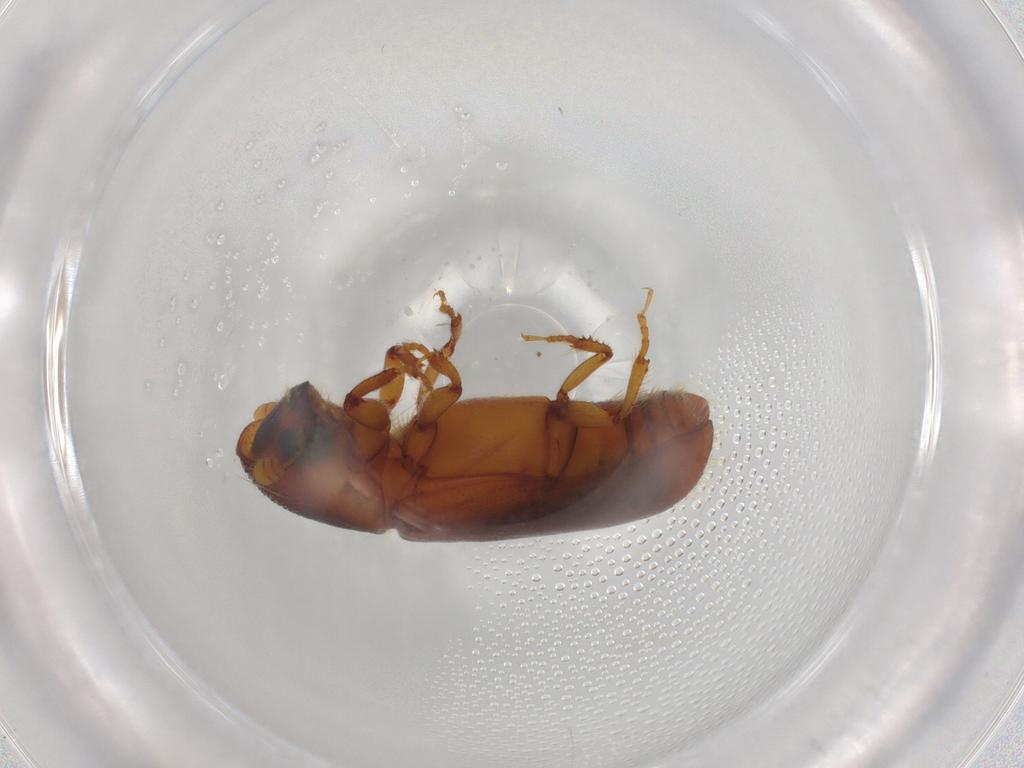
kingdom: Animalia
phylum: Arthropoda
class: Insecta
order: Coleoptera
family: Curculionidae
